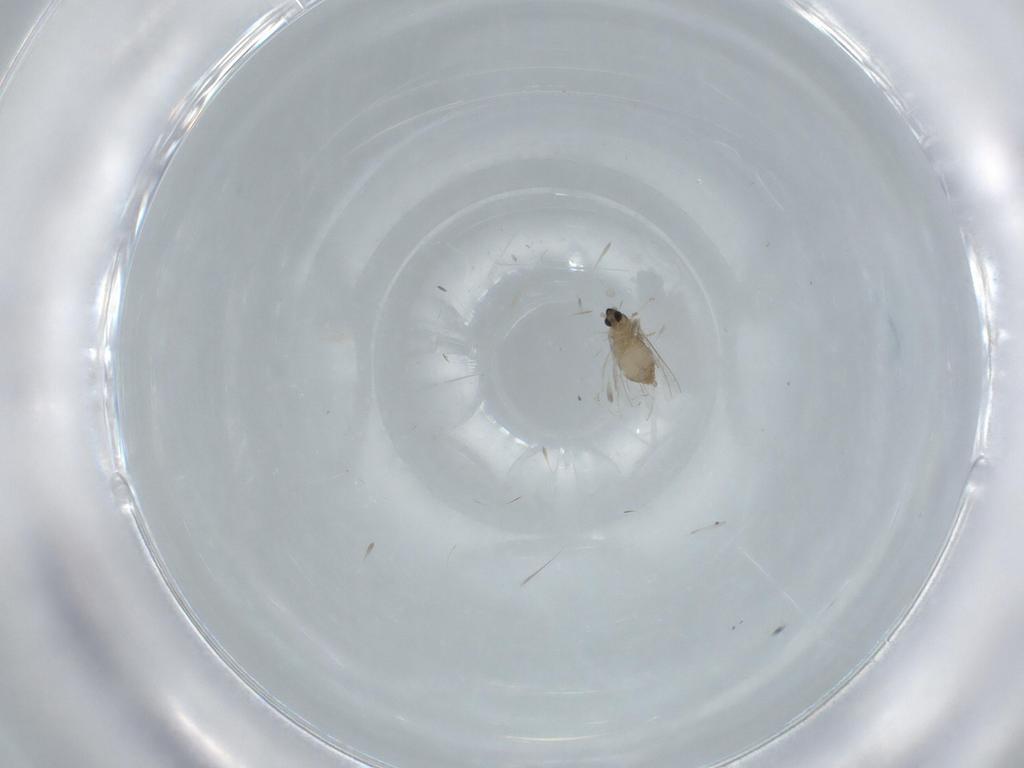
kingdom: Animalia
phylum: Arthropoda
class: Insecta
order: Diptera
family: Cecidomyiidae
